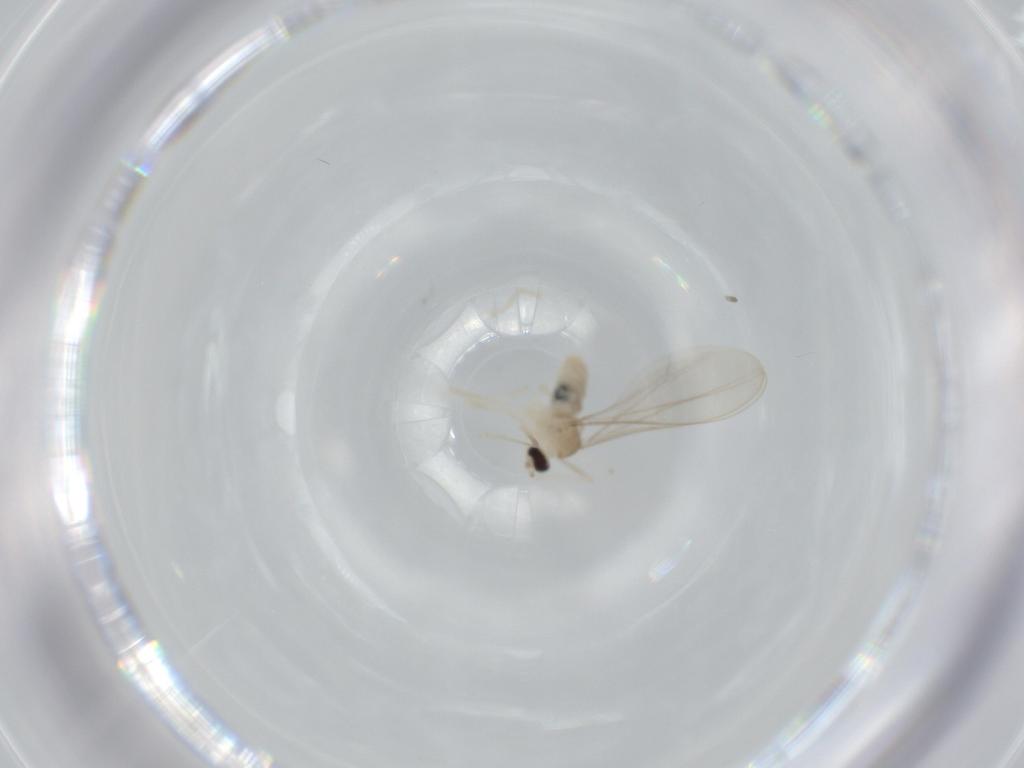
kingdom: Animalia
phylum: Arthropoda
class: Insecta
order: Diptera
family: Cecidomyiidae
